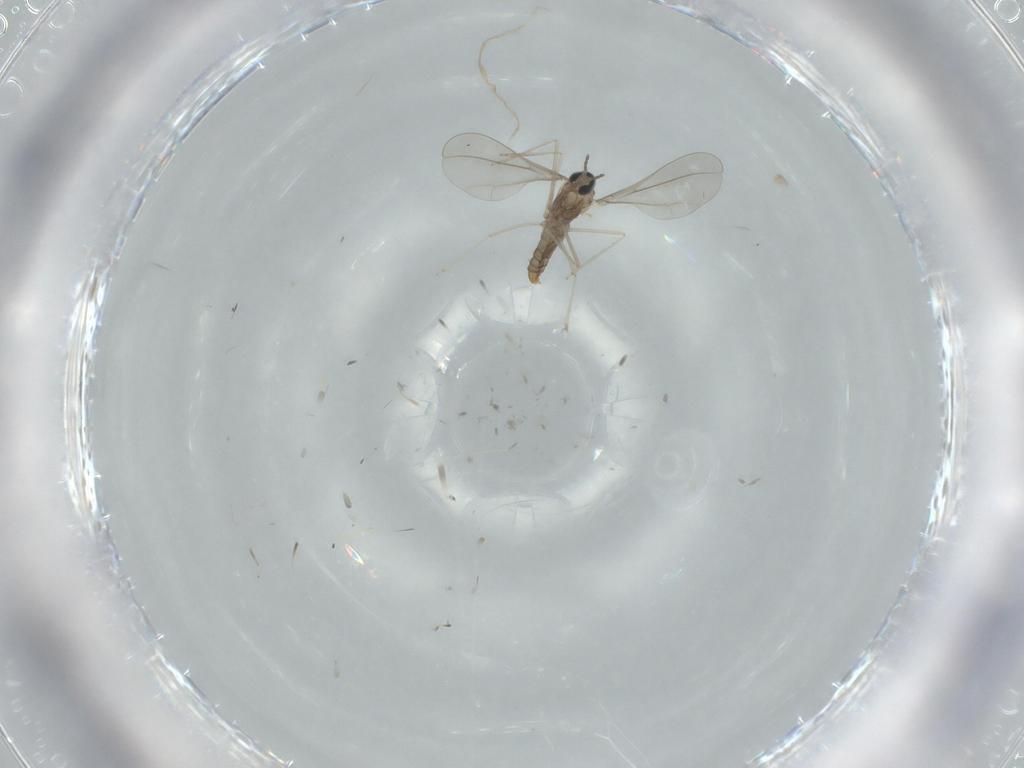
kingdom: Animalia
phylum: Arthropoda
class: Insecta
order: Diptera
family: Cecidomyiidae
